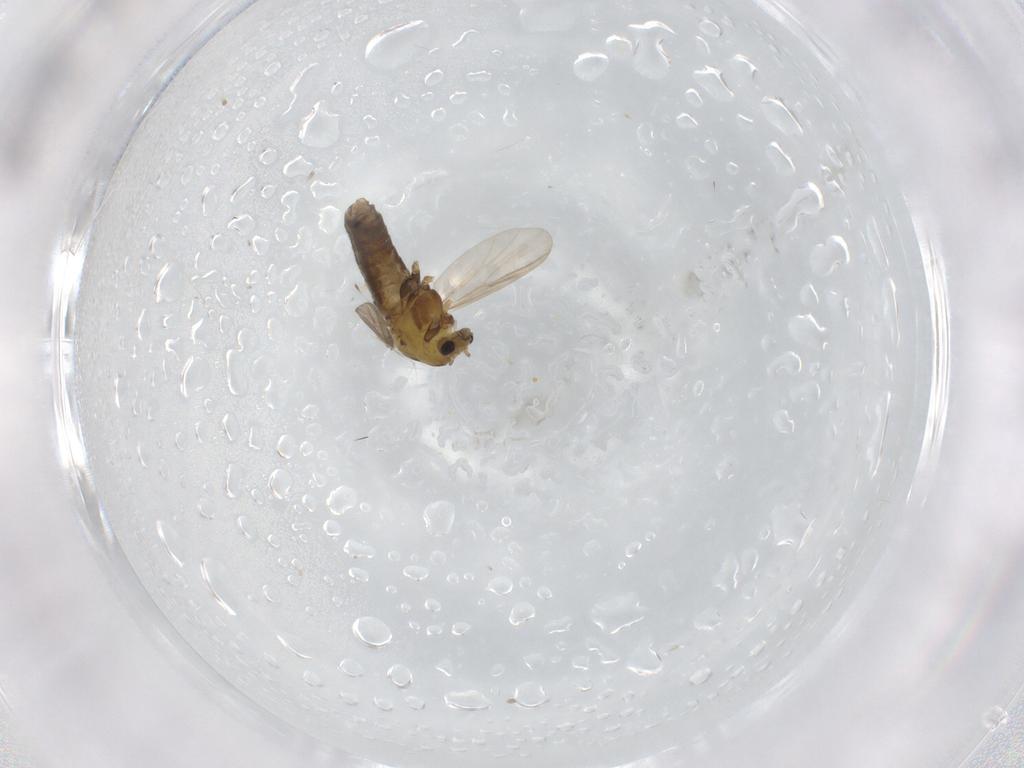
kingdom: Animalia
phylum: Arthropoda
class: Insecta
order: Diptera
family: Chironomidae
